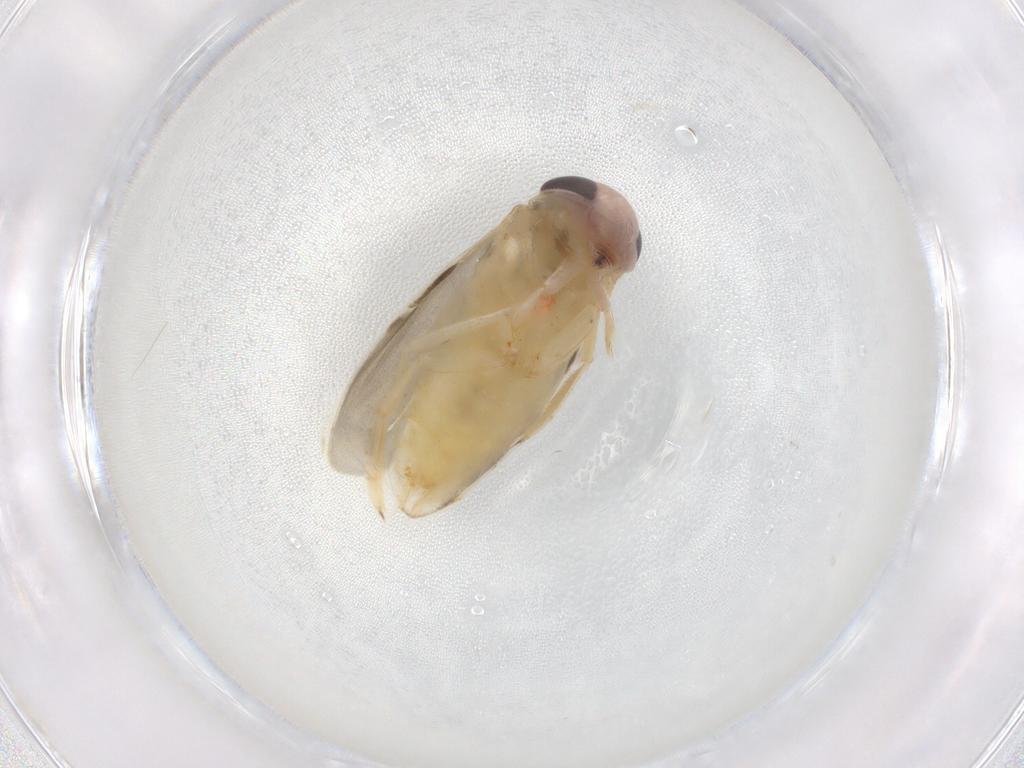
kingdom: Animalia
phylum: Arthropoda
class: Insecta
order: Hemiptera
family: Corixidae
